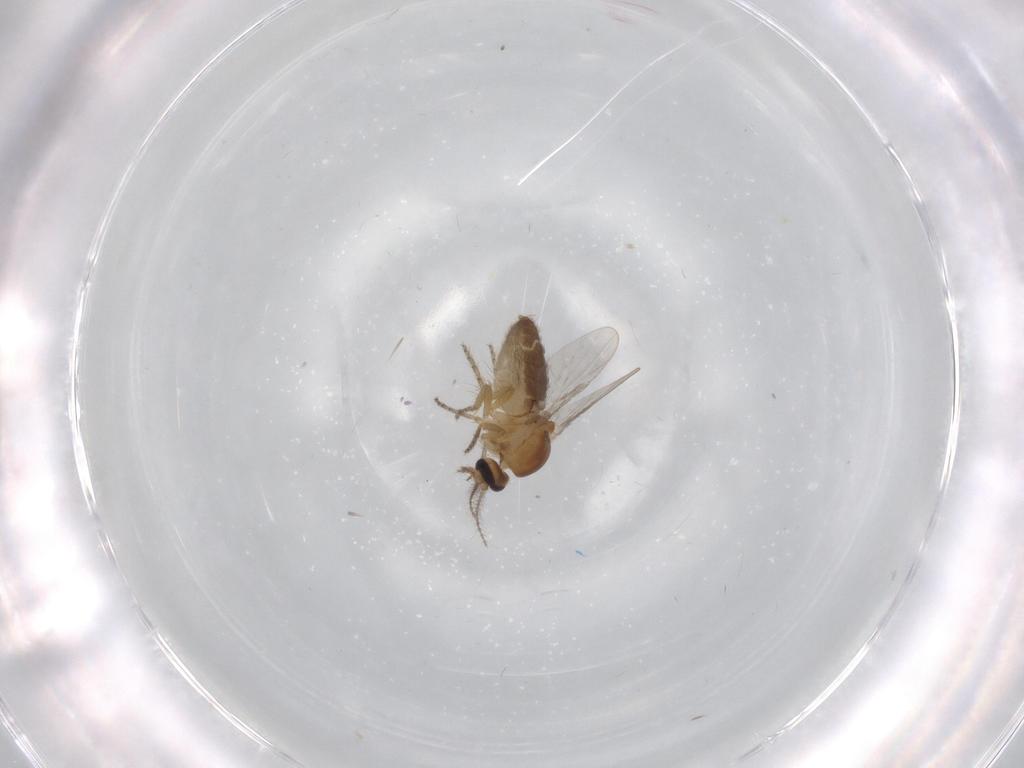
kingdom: Animalia
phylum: Arthropoda
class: Insecta
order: Diptera
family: Ceratopogonidae
